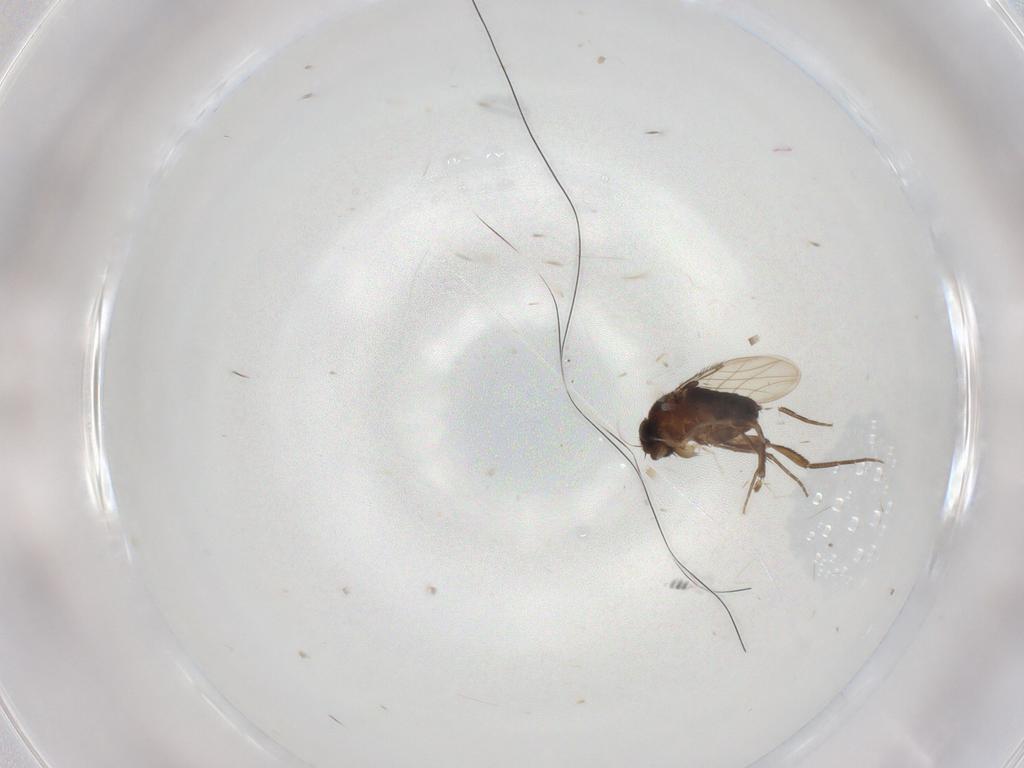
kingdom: Animalia
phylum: Arthropoda
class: Insecta
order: Diptera
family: Phoridae
